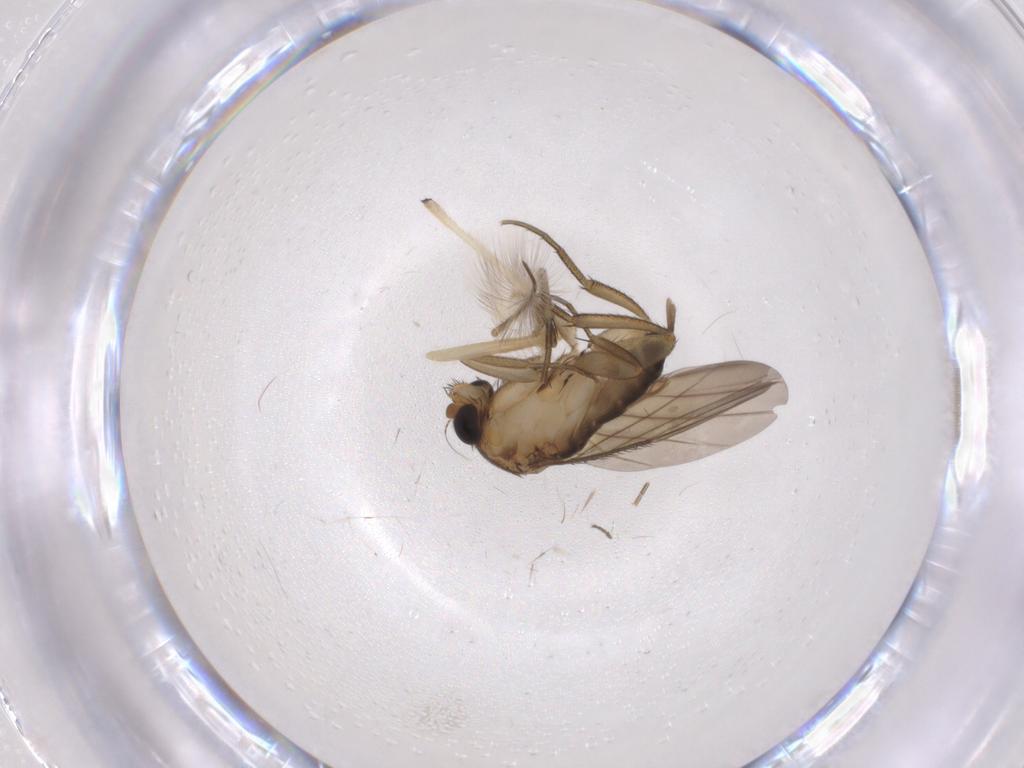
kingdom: Animalia
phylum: Arthropoda
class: Insecta
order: Diptera
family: Phoridae
